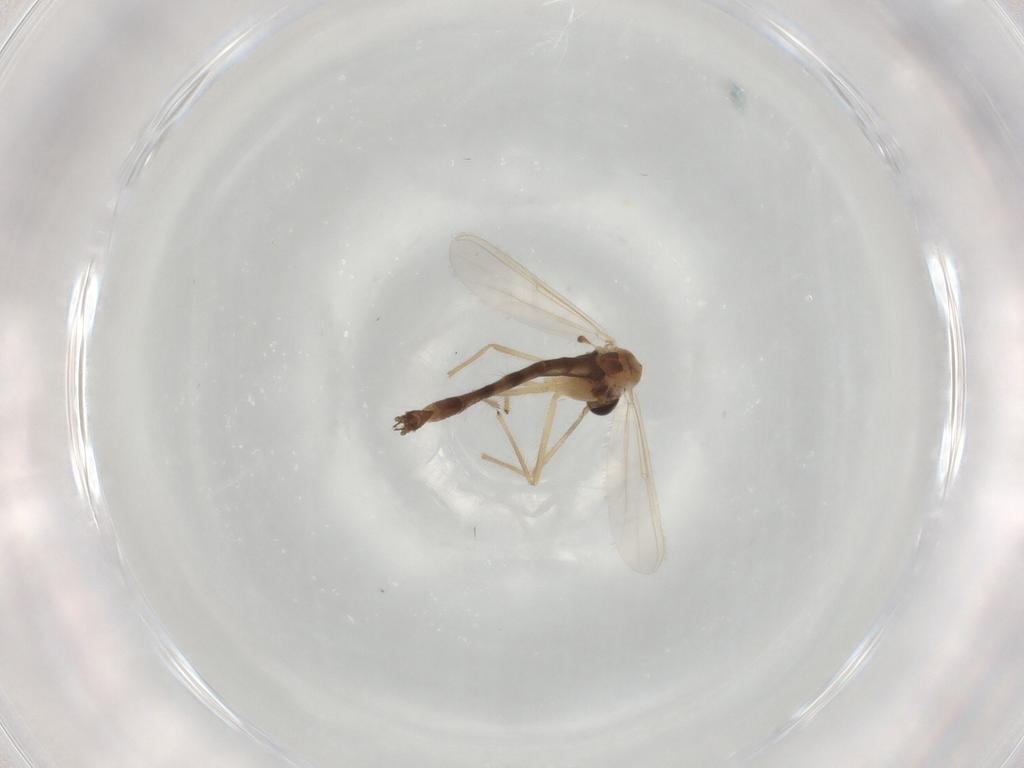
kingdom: Animalia
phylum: Arthropoda
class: Insecta
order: Diptera
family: Chironomidae
